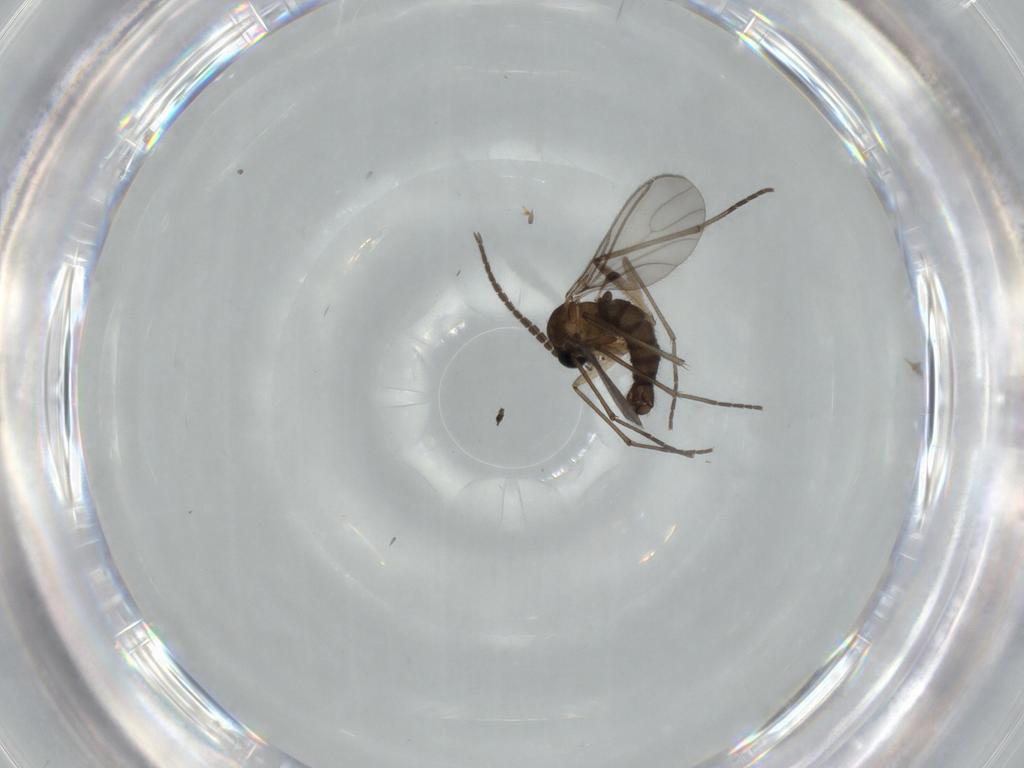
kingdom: Animalia
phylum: Arthropoda
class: Insecta
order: Diptera
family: Sciaridae
